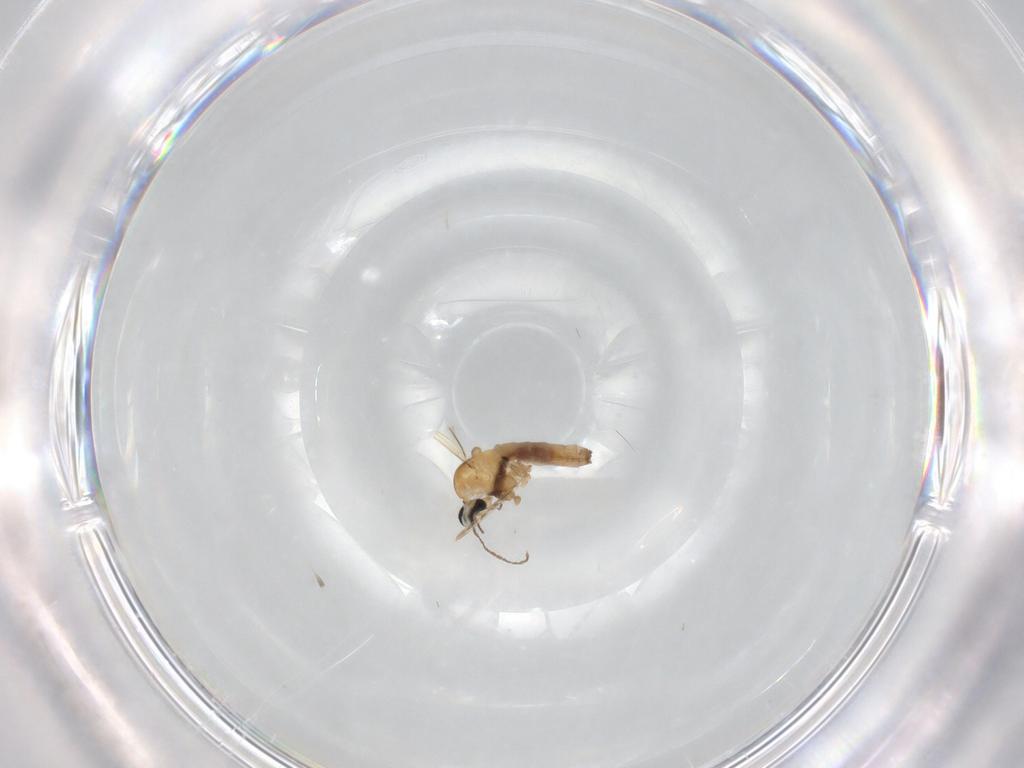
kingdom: Animalia
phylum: Arthropoda
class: Insecta
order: Diptera
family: Cecidomyiidae
